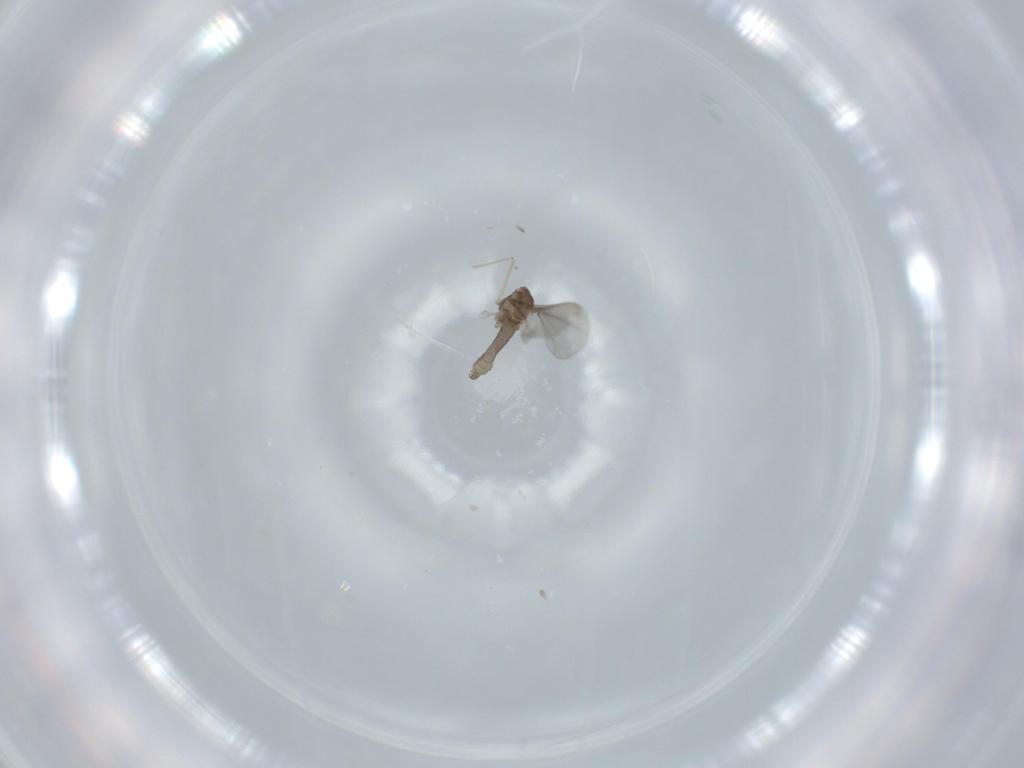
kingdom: Animalia
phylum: Arthropoda
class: Insecta
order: Diptera
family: Cecidomyiidae
